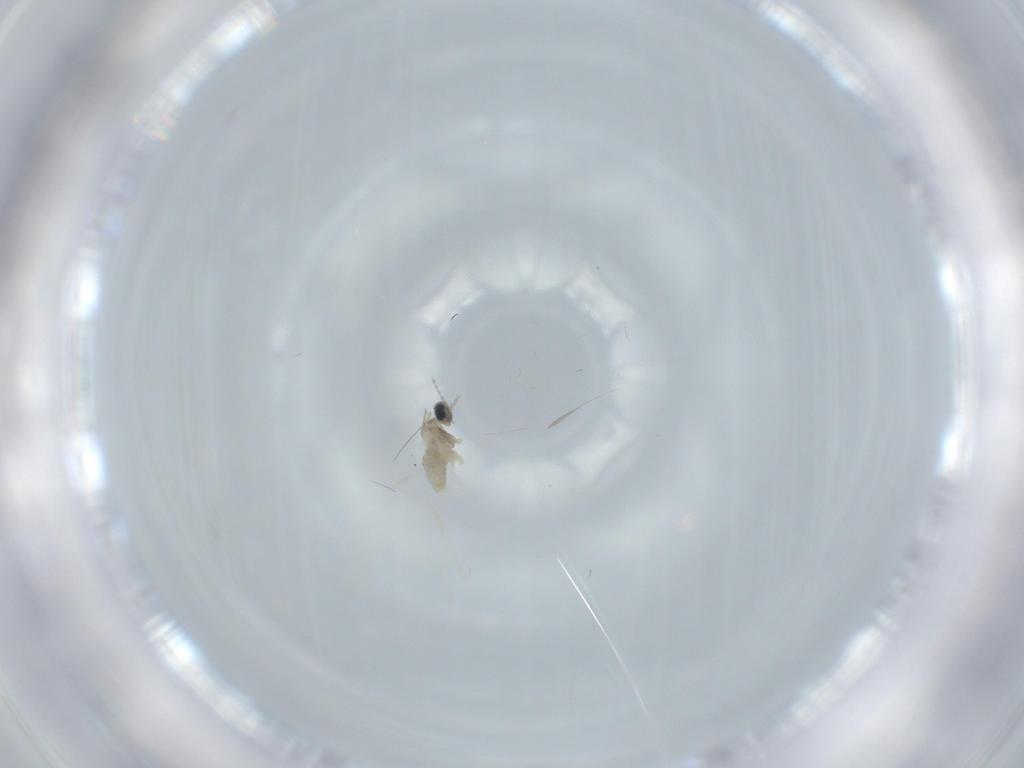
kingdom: Animalia
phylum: Arthropoda
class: Insecta
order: Diptera
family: Cecidomyiidae
